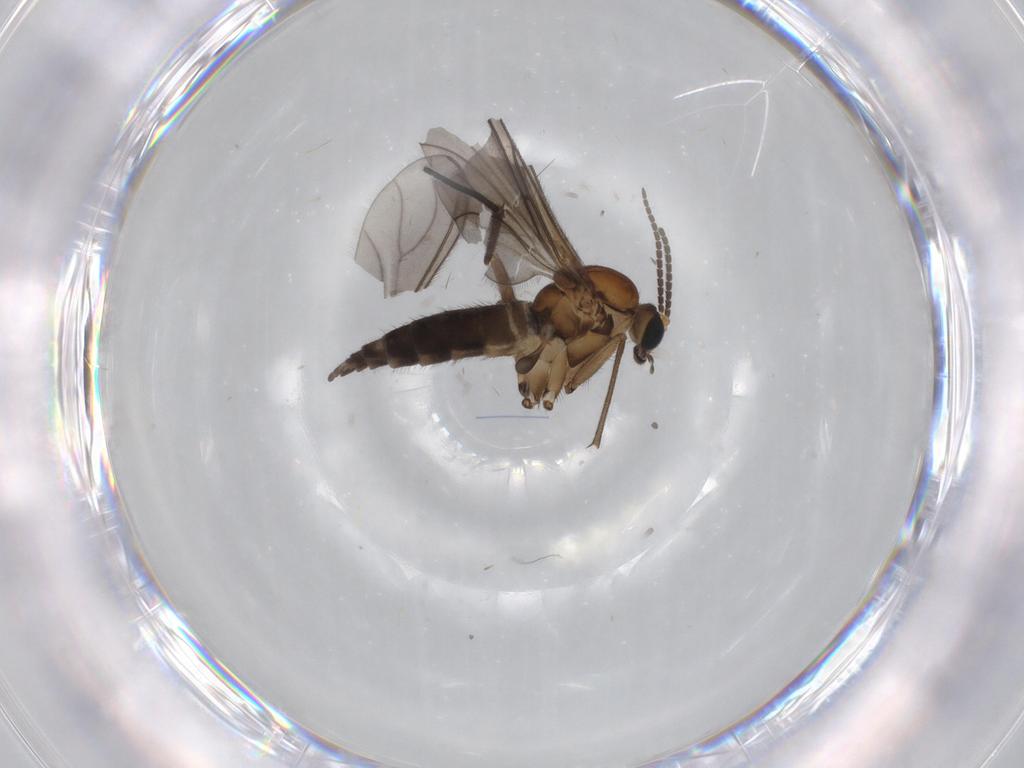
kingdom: Animalia
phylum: Arthropoda
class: Insecta
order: Diptera
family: Sciaridae
